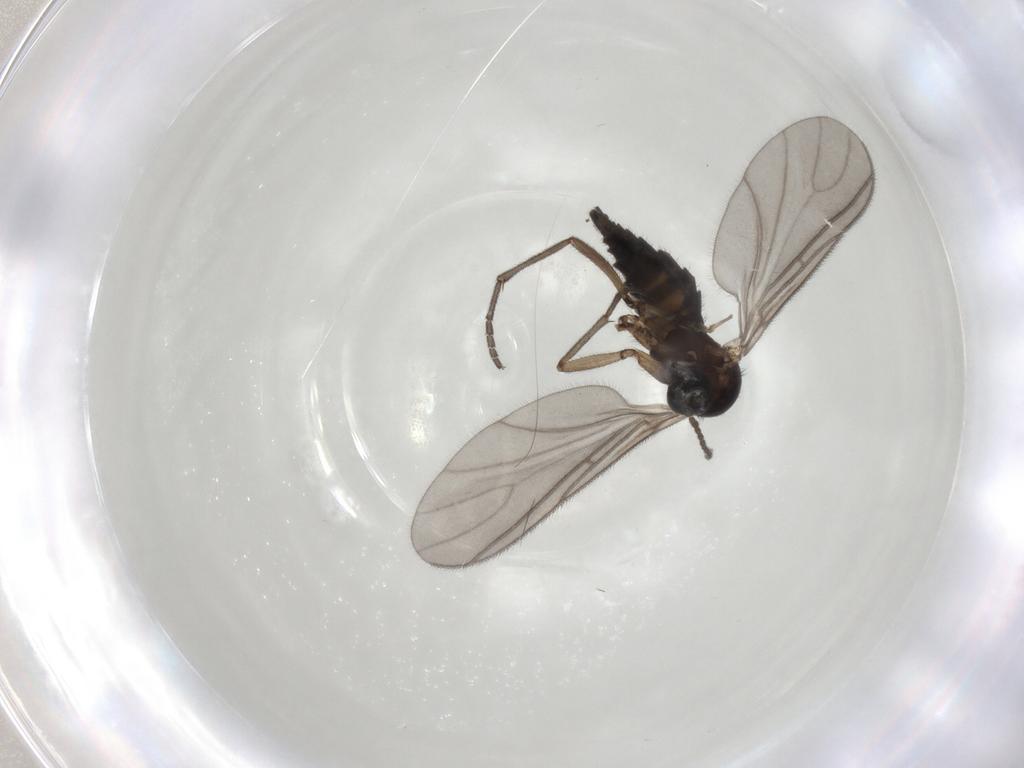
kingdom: Animalia
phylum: Arthropoda
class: Insecta
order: Diptera
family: Sciaridae
